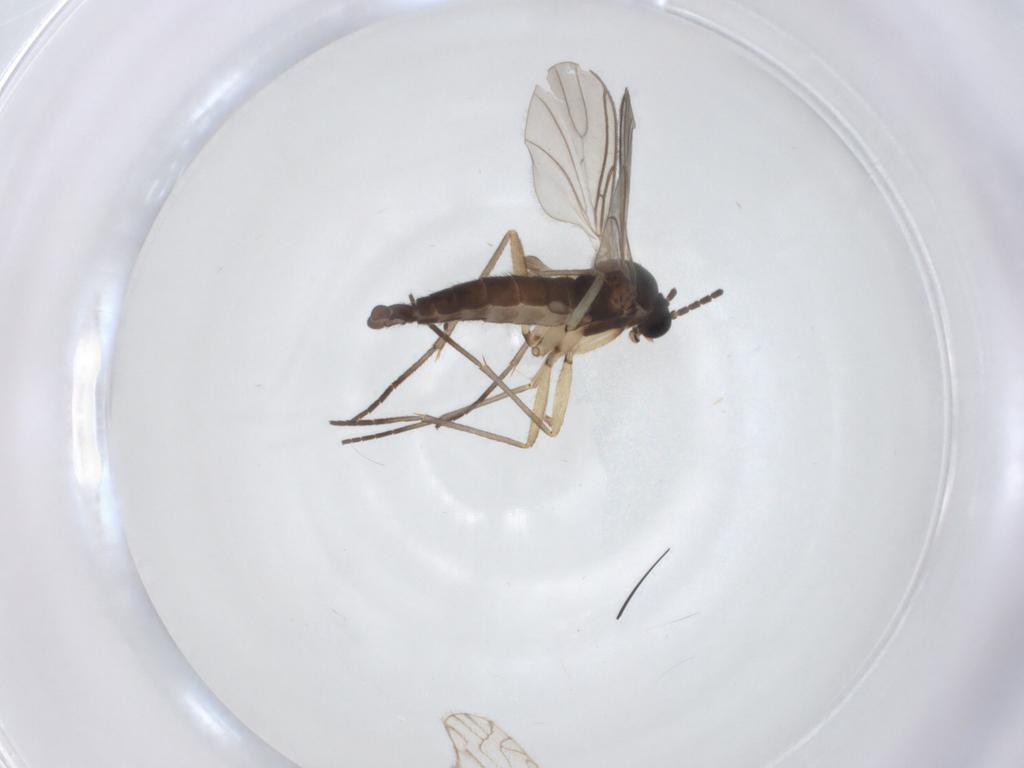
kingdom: Animalia
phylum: Arthropoda
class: Insecta
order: Diptera
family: Sciaridae
